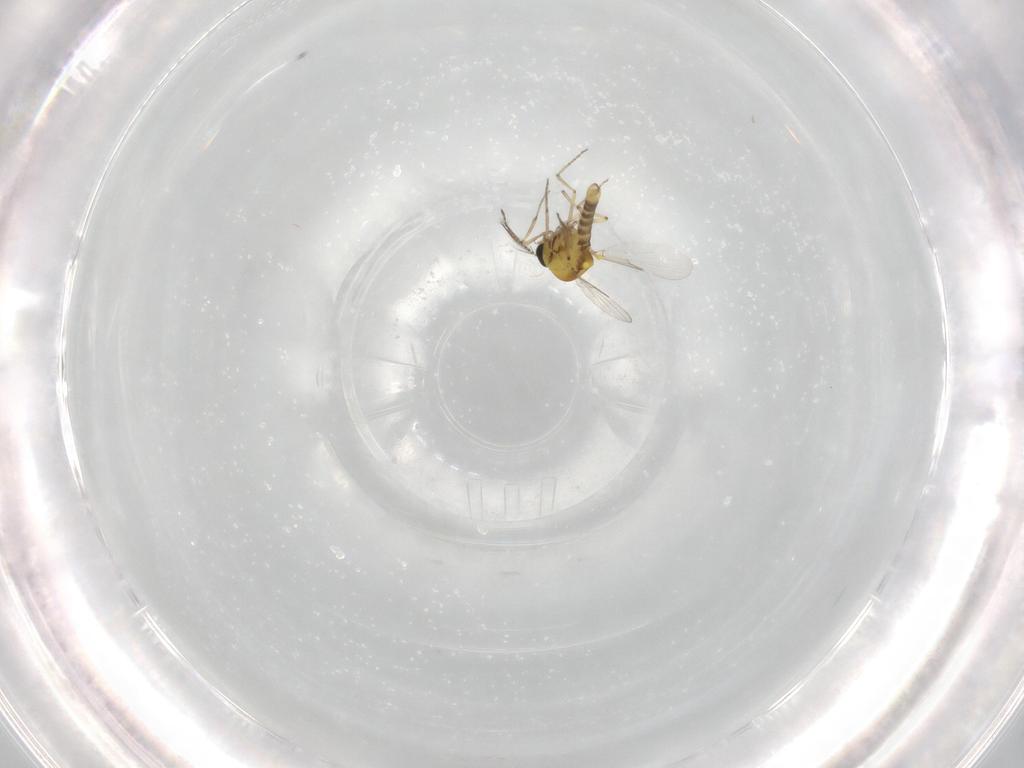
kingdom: Animalia
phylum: Arthropoda
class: Insecta
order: Diptera
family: Ceratopogonidae
